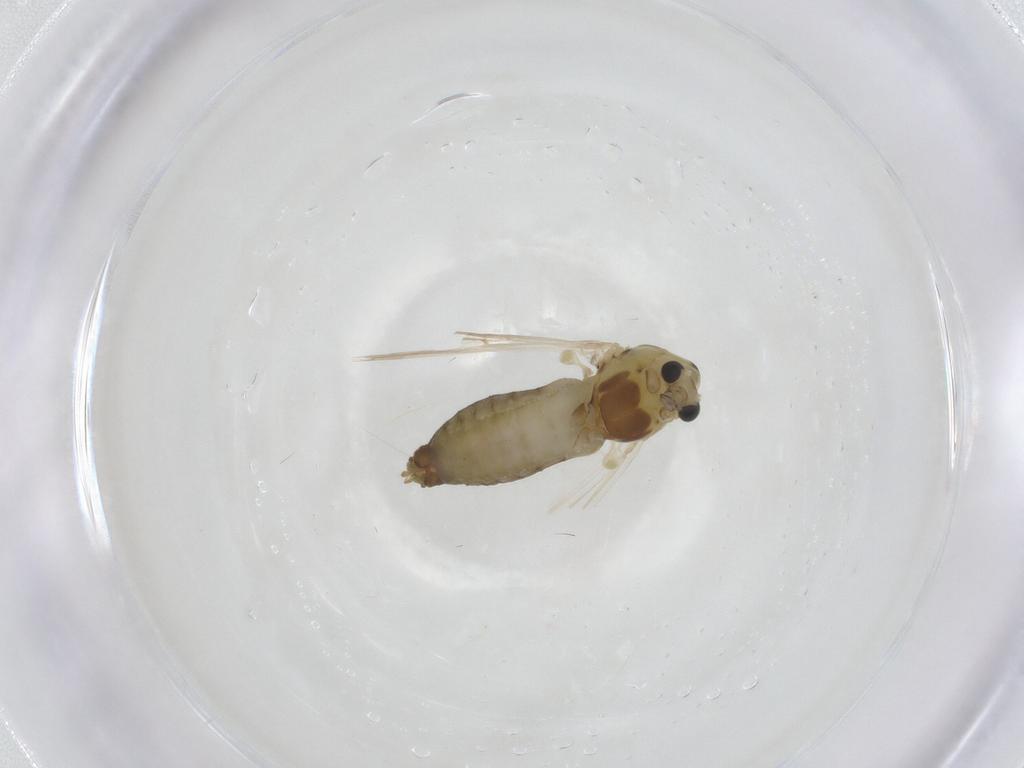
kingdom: Animalia
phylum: Arthropoda
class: Insecta
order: Diptera
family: Chironomidae
